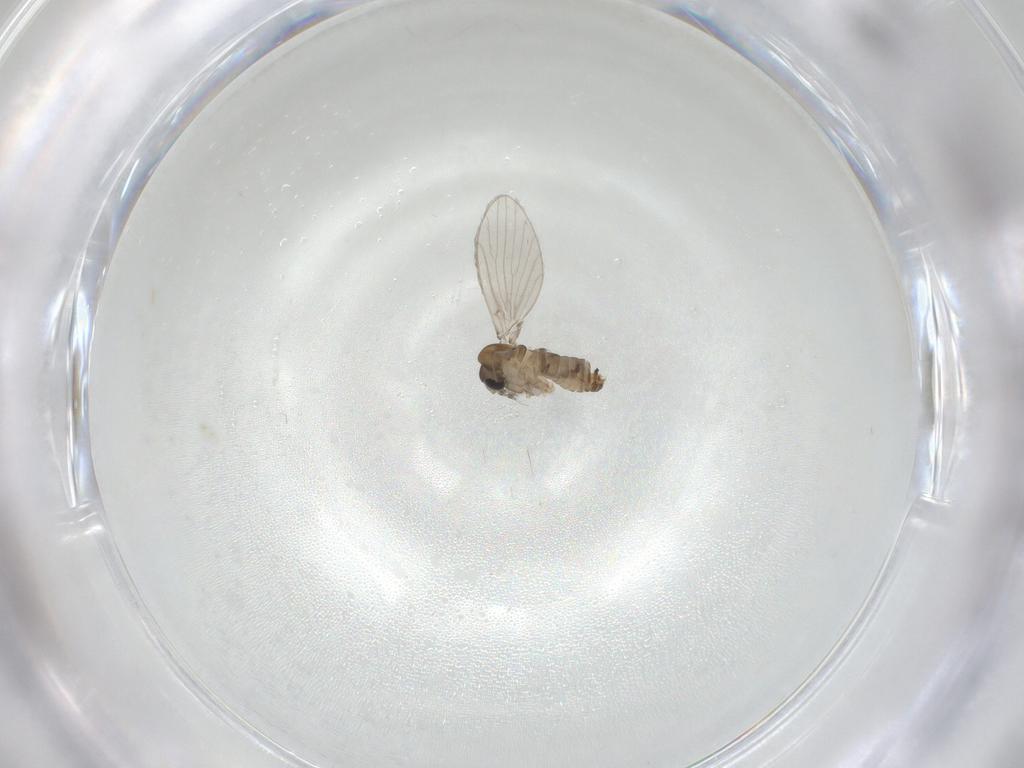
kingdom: Animalia
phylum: Arthropoda
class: Insecta
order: Diptera
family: Psychodidae
